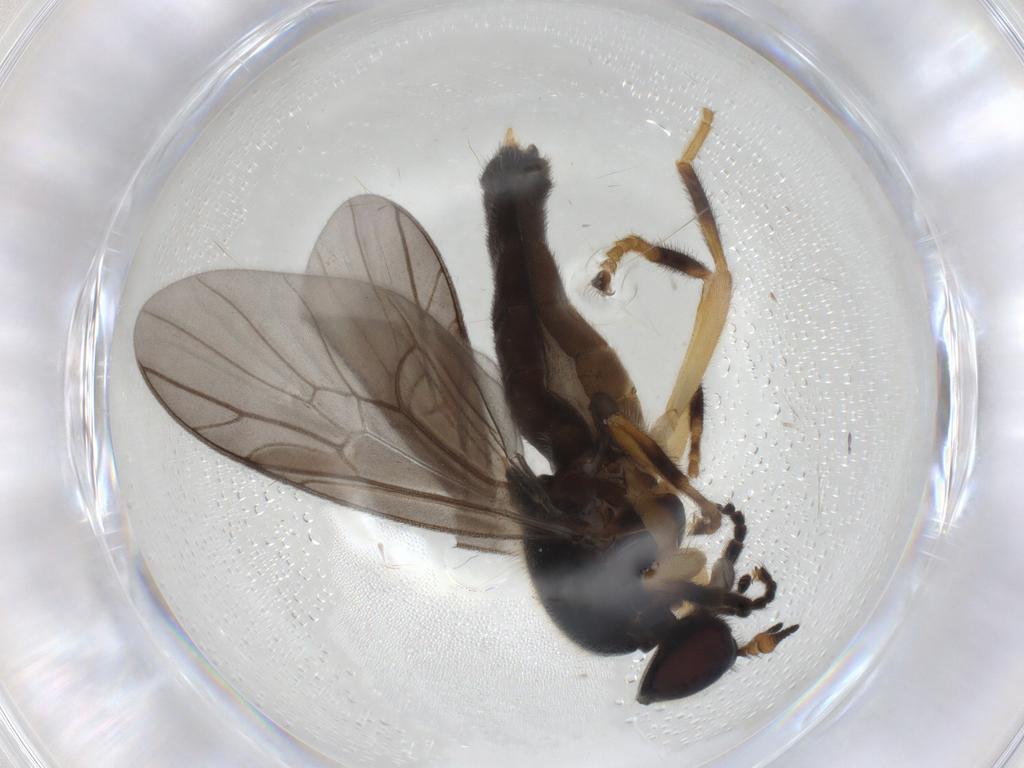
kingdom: Animalia
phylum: Arthropoda
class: Insecta
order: Diptera
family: Stratiomyidae
